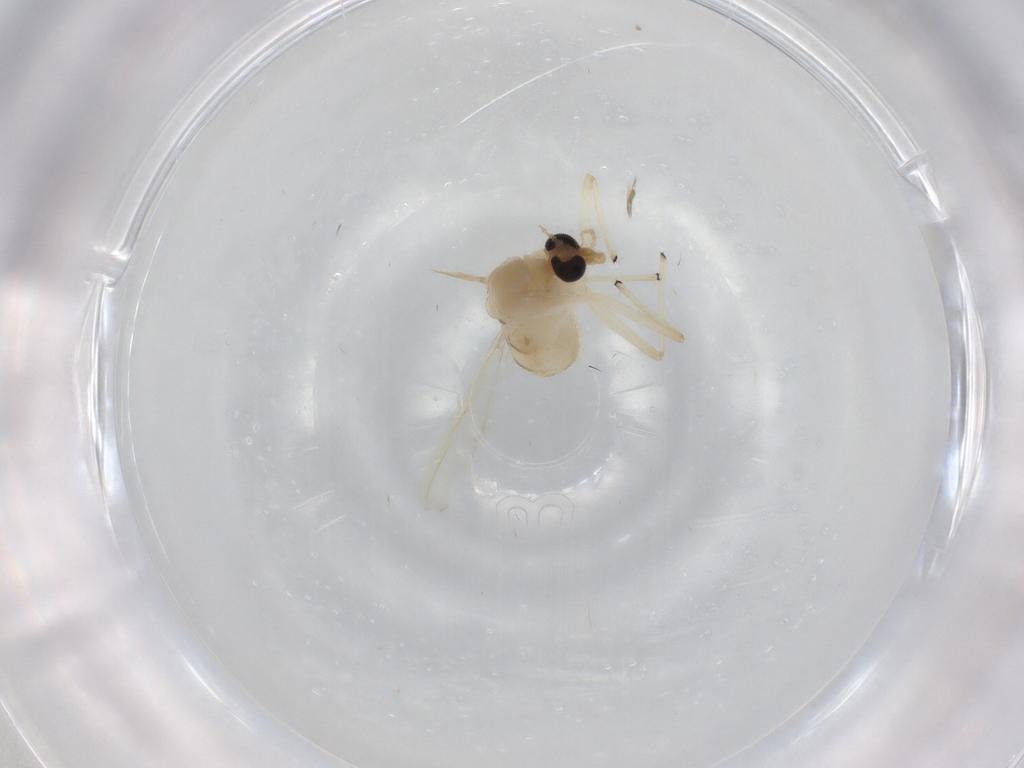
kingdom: Animalia
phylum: Arthropoda
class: Insecta
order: Diptera
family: Chironomidae
